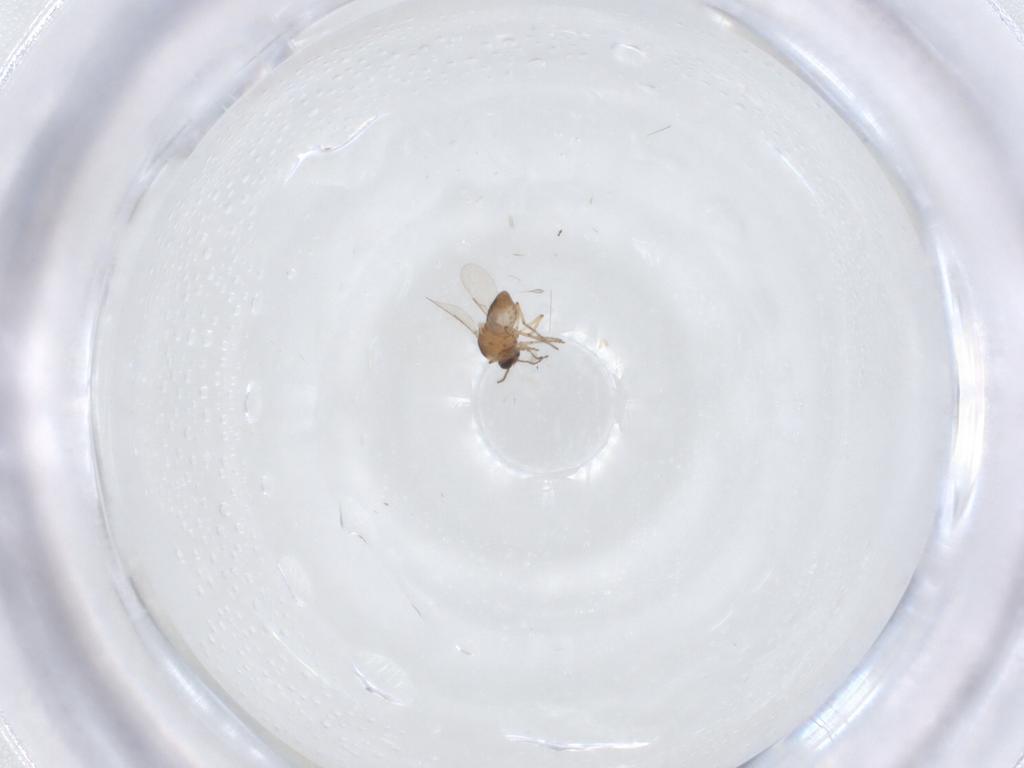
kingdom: Animalia
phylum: Arthropoda
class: Insecta
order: Diptera
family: Ceratopogonidae
